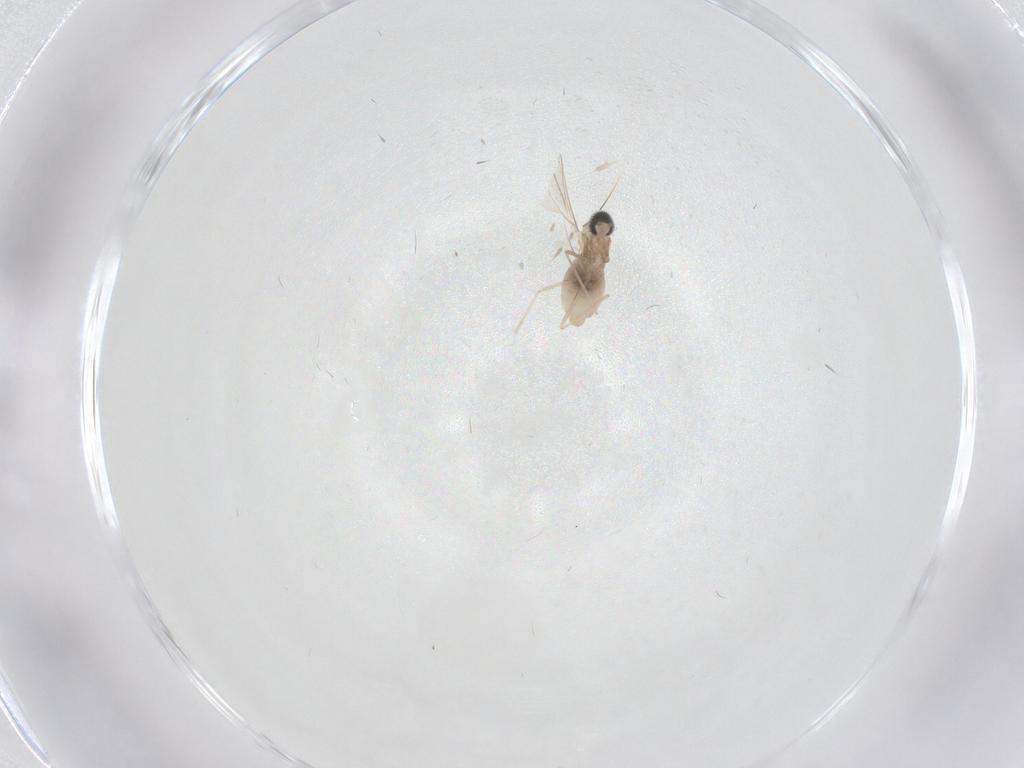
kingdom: Animalia
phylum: Arthropoda
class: Insecta
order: Diptera
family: Cecidomyiidae
